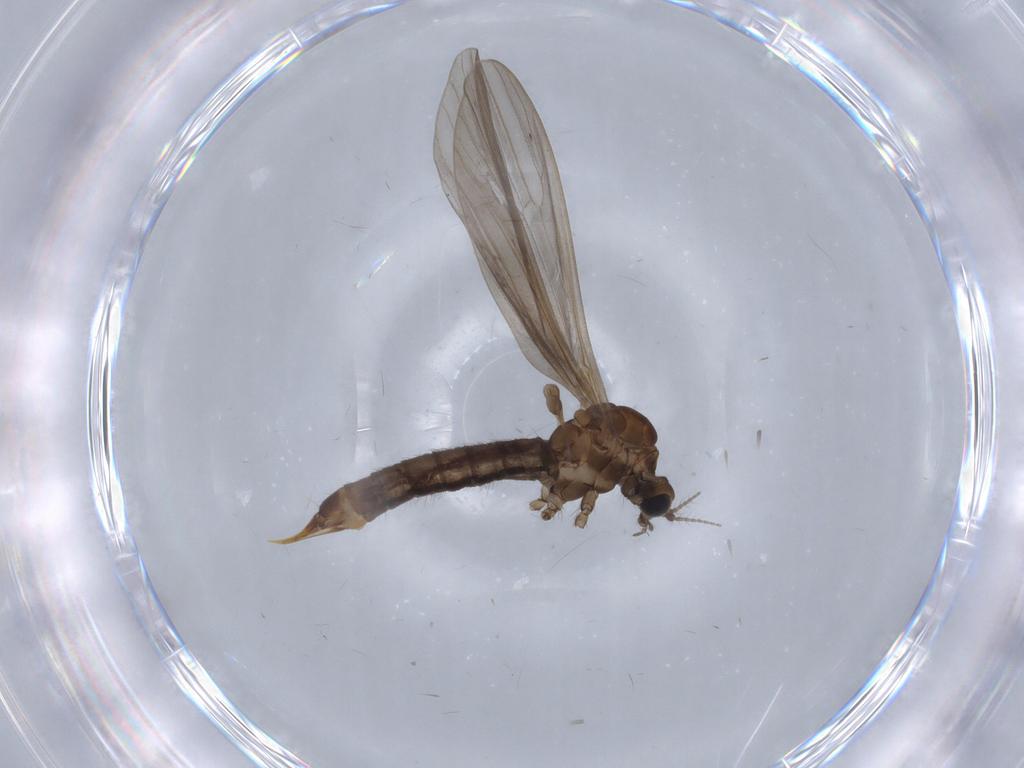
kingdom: Animalia
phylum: Arthropoda
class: Insecta
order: Diptera
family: Limoniidae
